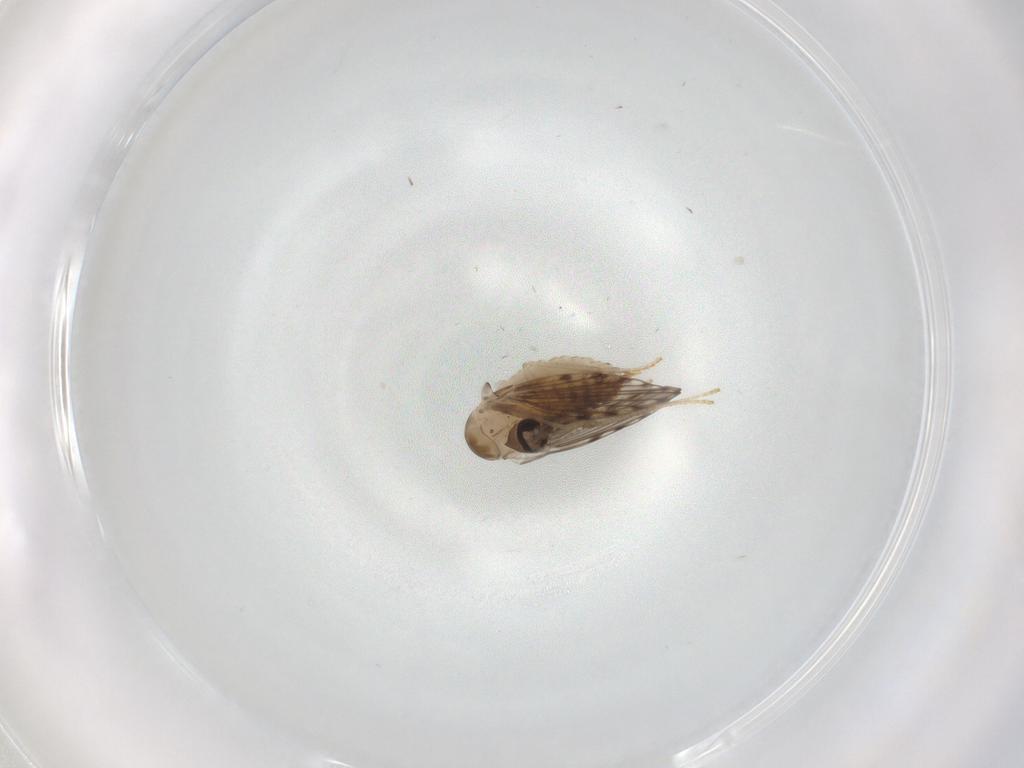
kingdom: Animalia
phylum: Arthropoda
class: Insecta
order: Diptera
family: Psychodidae
